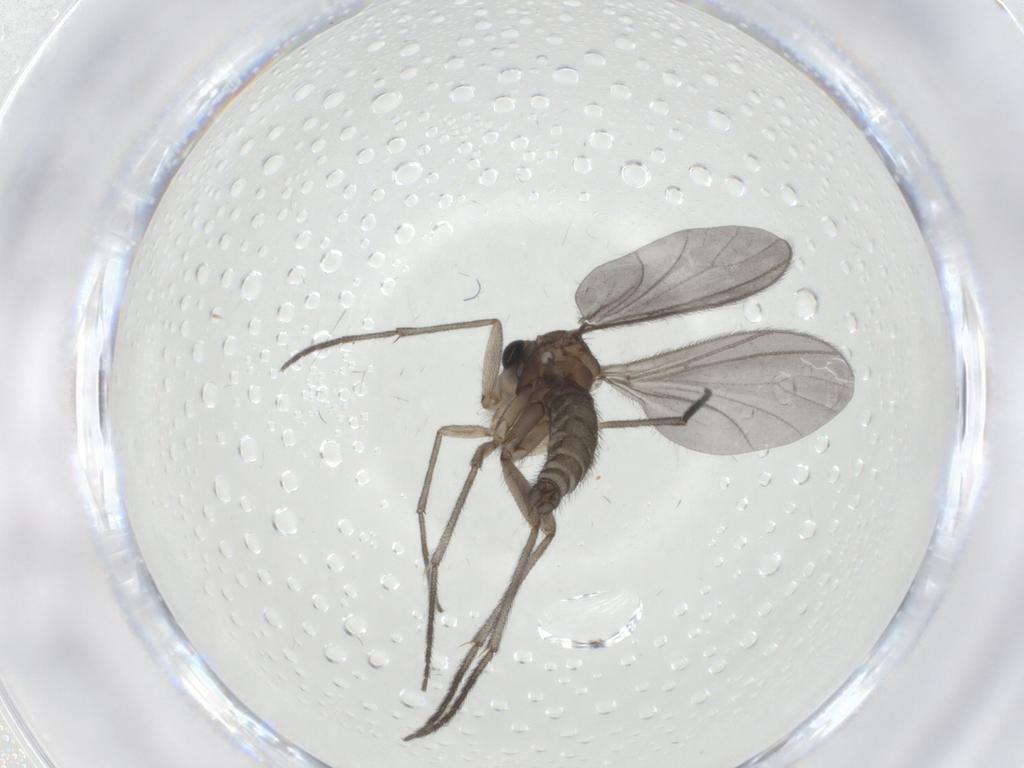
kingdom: Animalia
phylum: Arthropoda
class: Insecta
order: Diptera
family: Sciaridae
